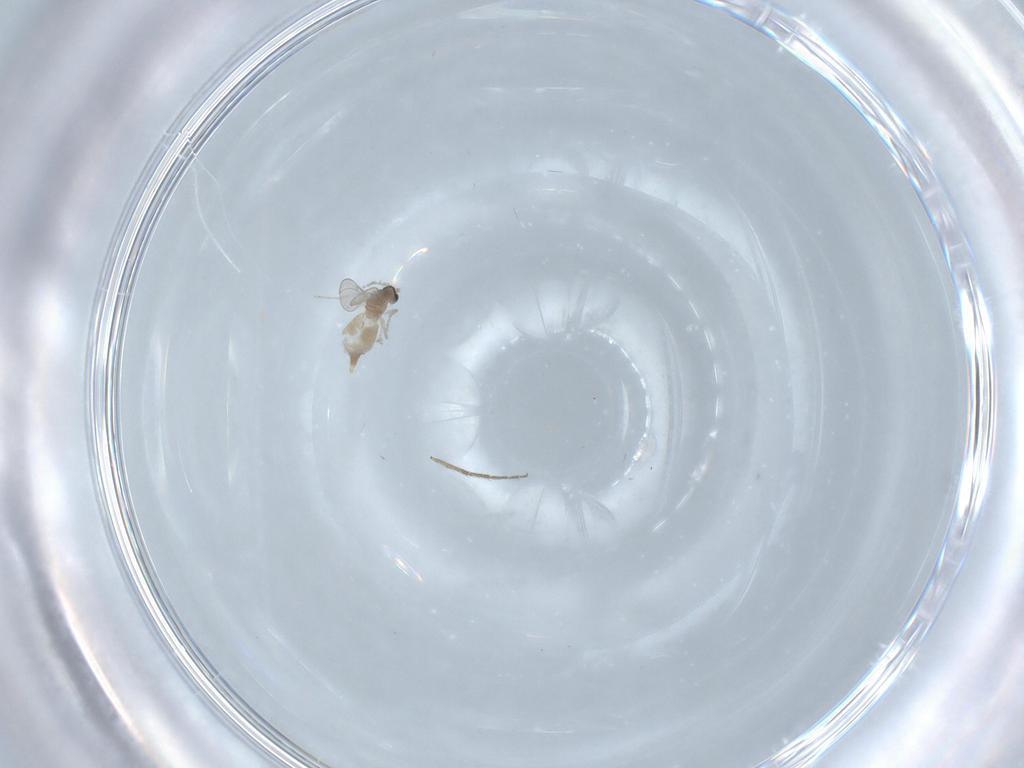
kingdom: Animalia
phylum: Arthropoda
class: Insecta
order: Diptera
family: Cecidomyiidae
